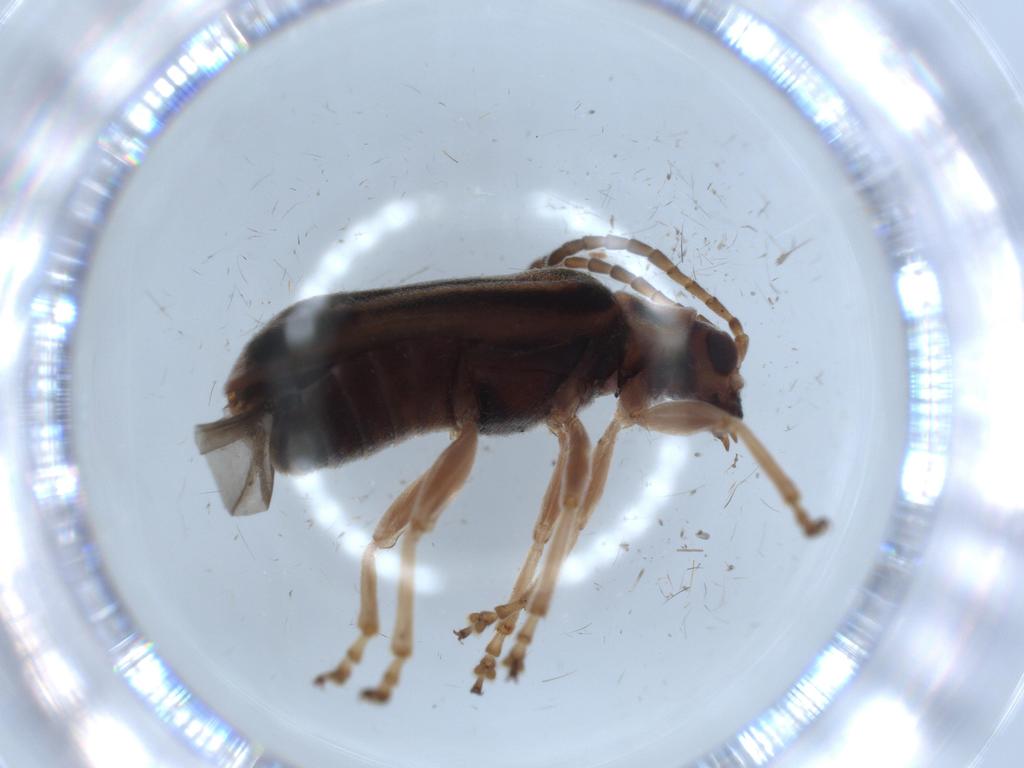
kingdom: Animalia
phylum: Arthropoda
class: Insecta
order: Coleoptera
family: Chrysomelidae
